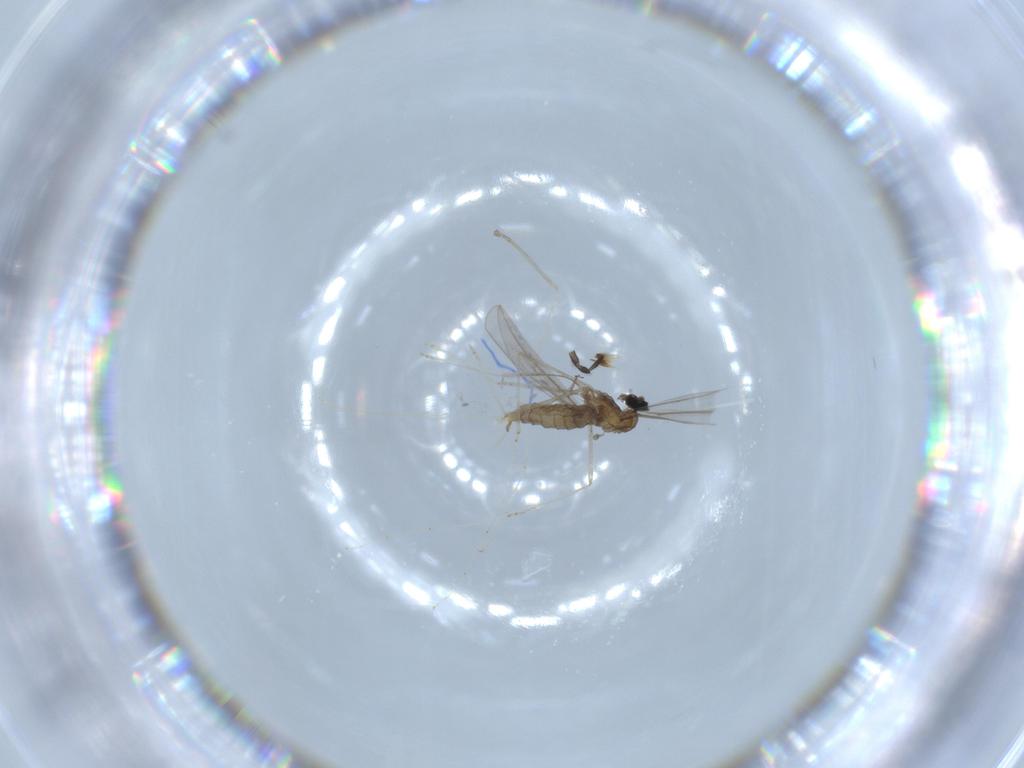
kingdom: Animalia
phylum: Arthropoda
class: Insecta
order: Diptera
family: Cecidomyiidae
